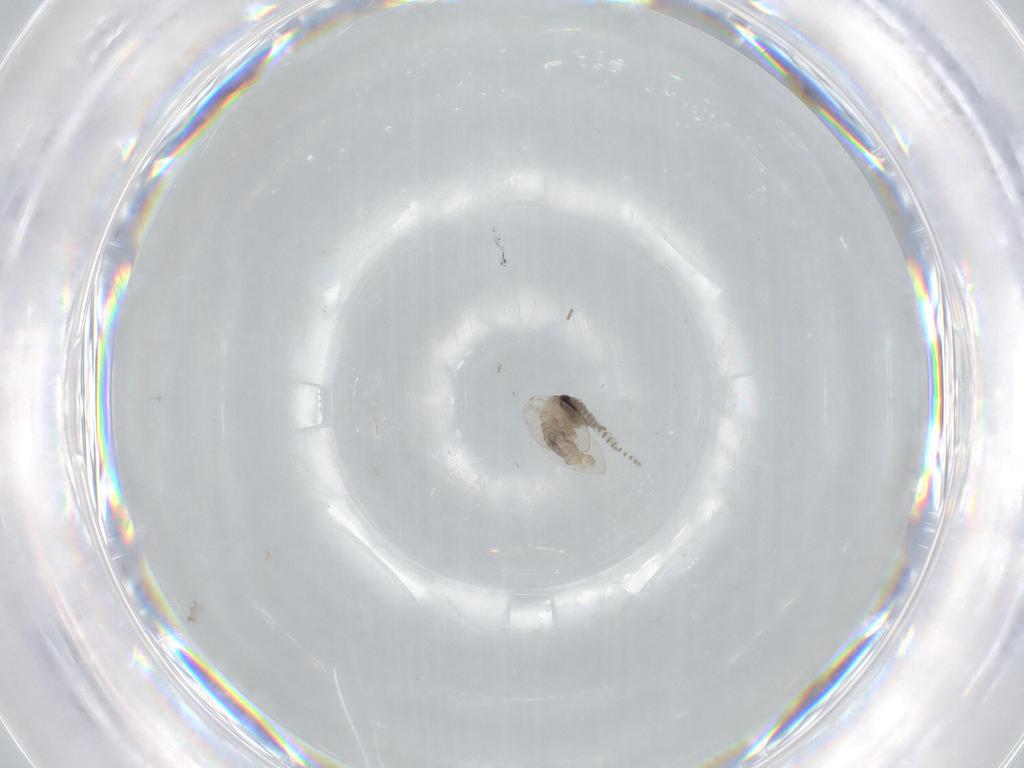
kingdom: Animalia
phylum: Arthropoda
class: Insecta
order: Diptera
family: Psychodidae
